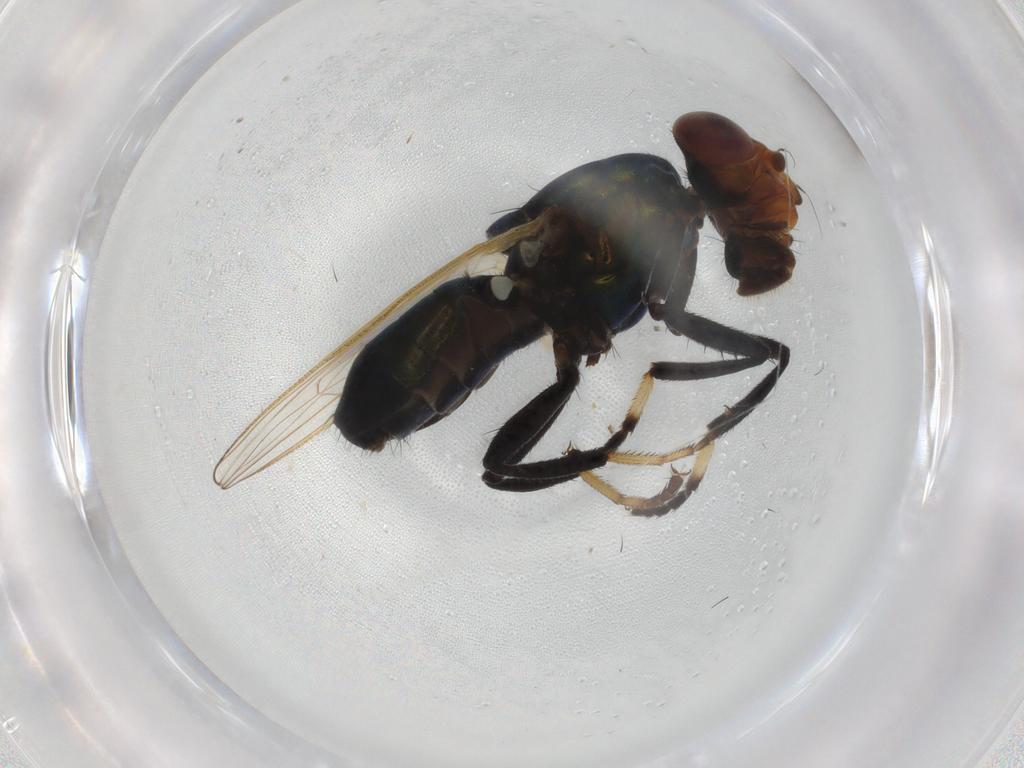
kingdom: Animalia
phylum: Arthropoda
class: Insecta
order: Diptera
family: Ulidiidae
